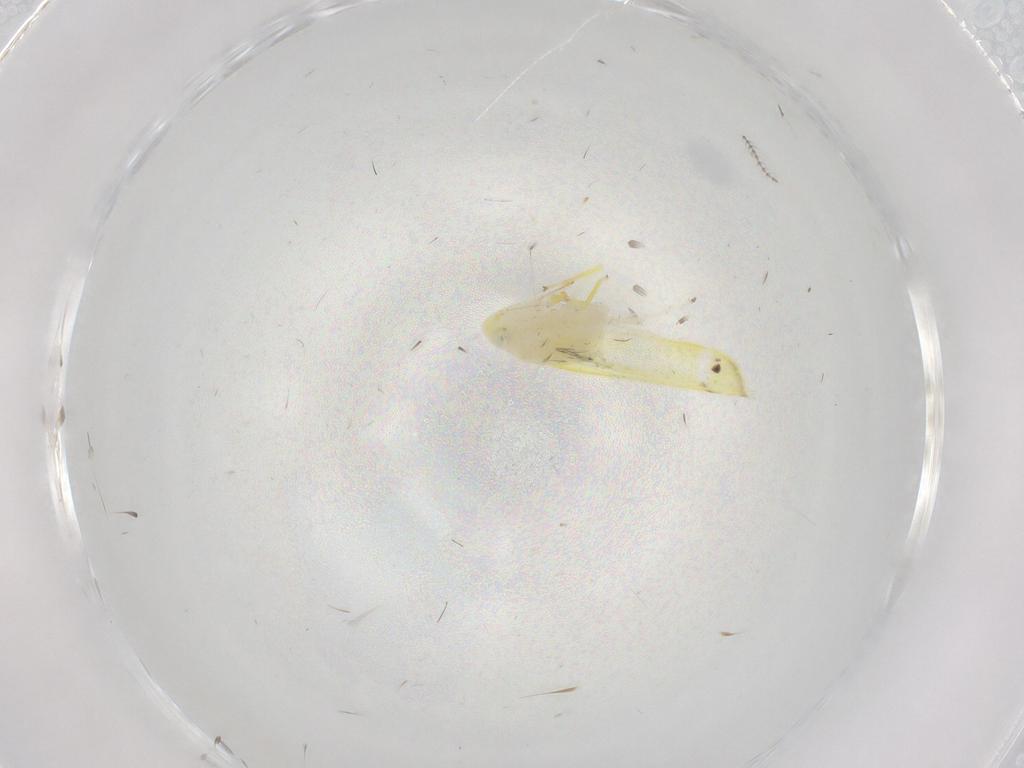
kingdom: Animalia
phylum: Arthropoda
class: Insecta
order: Hemiptera
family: Cicadellidae
